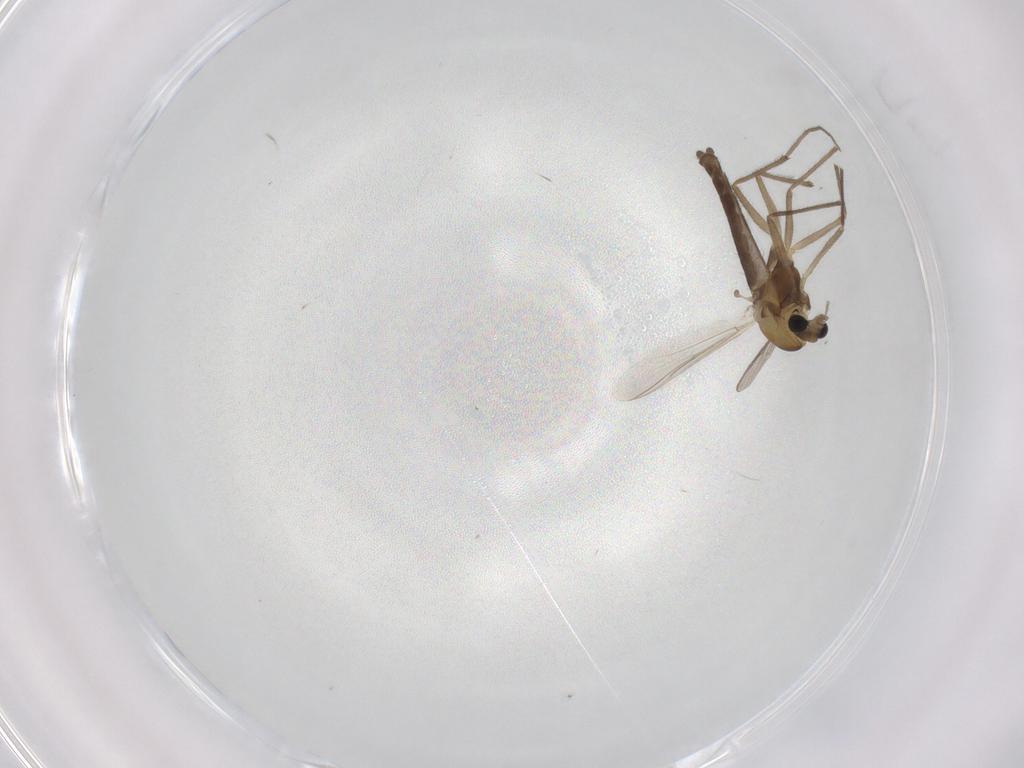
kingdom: Animalia
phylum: Arthropoda
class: Insecta
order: Diptera
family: Chironomidae
